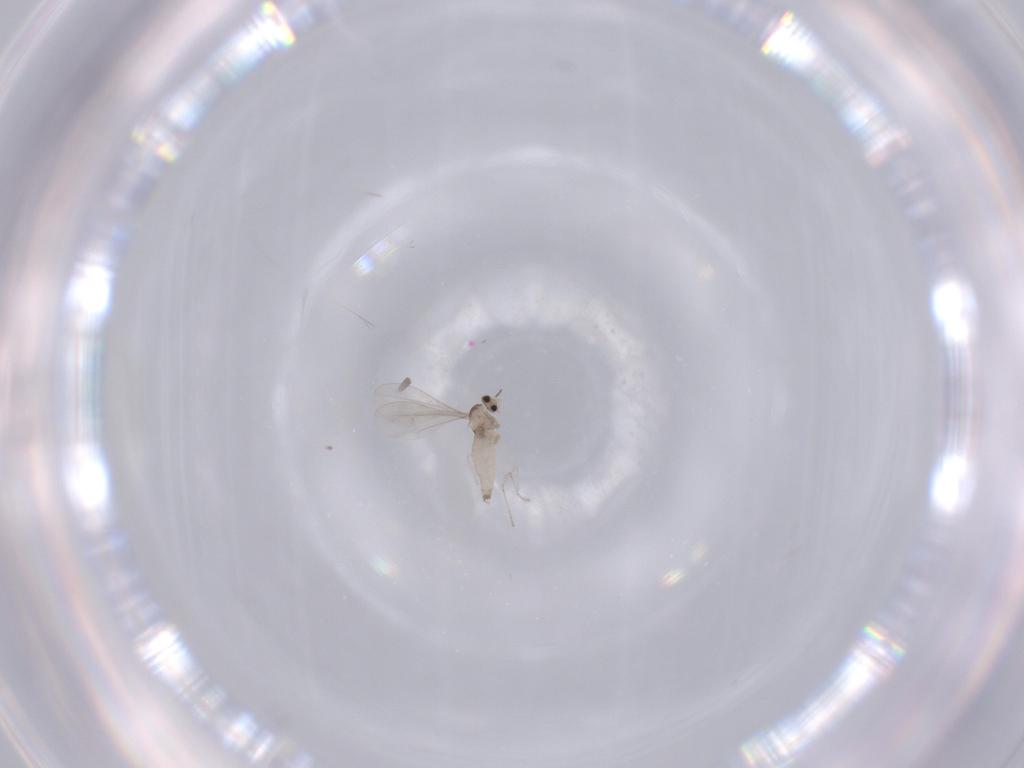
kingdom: Animalia
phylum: Arthropoda
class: Insecta
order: Diptera
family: Cecidomyiidae
